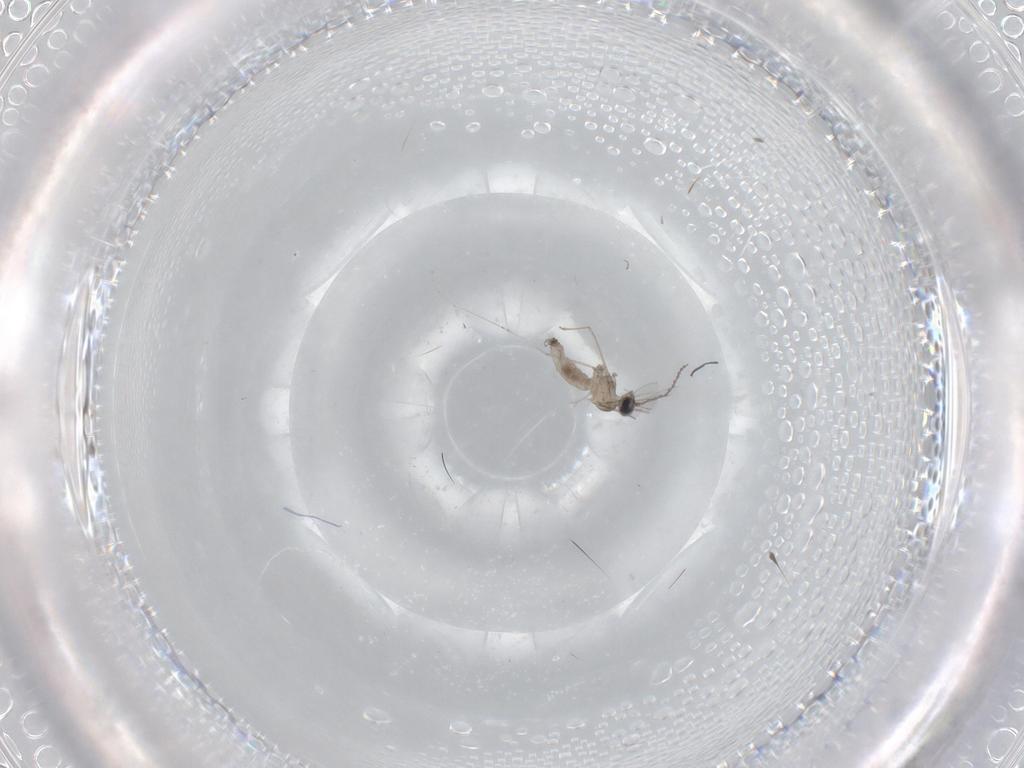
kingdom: Animalia
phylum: Arthropoda
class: Insecta
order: Diptera
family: Cecidomyiidae
